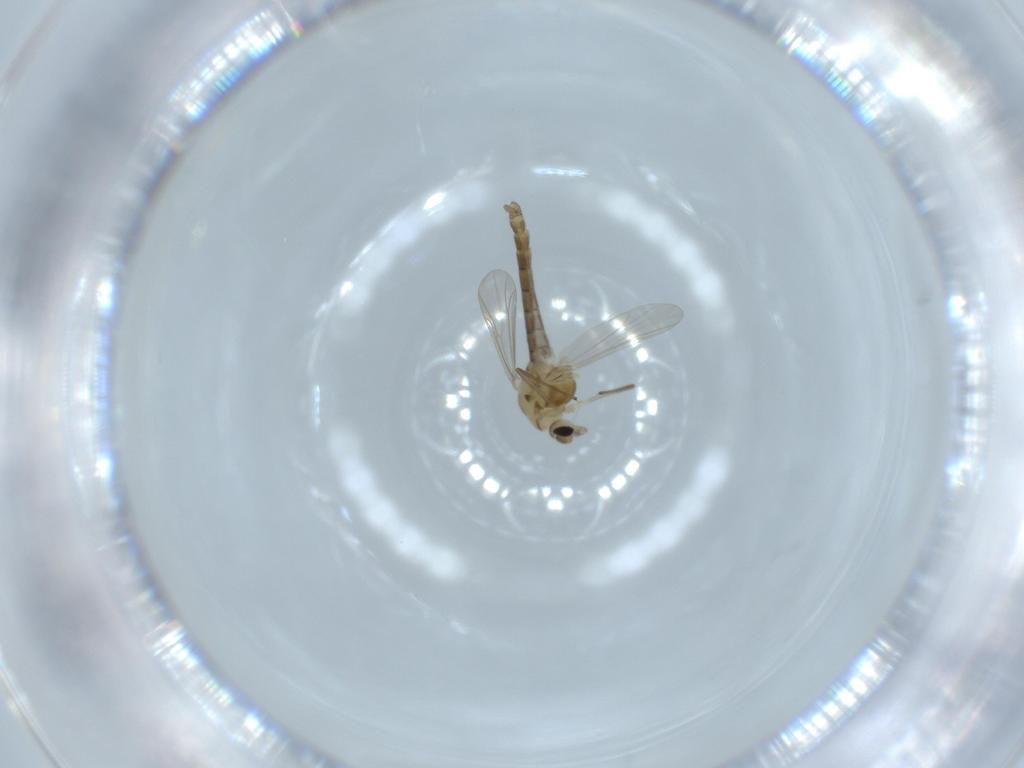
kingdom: Animalia
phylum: Arthropoda
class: Insecta
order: Diptera
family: Chironomidae
